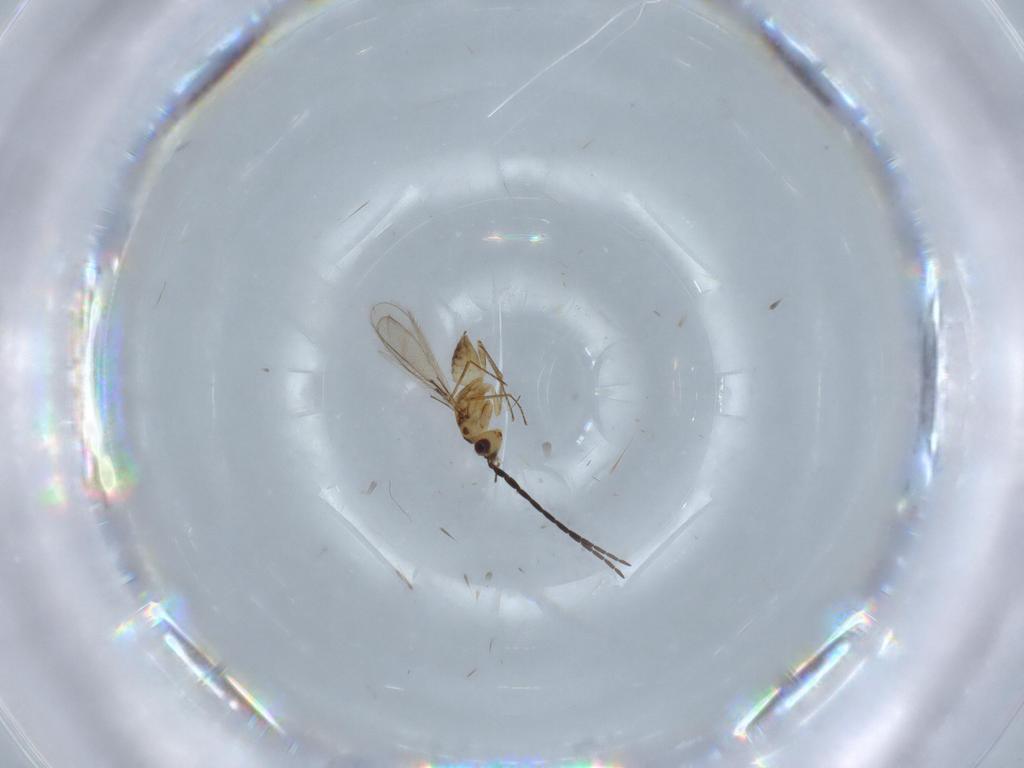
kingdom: Animalia
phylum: Arthropoda
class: Insecta
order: Hymenoptera
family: Mymaridae
